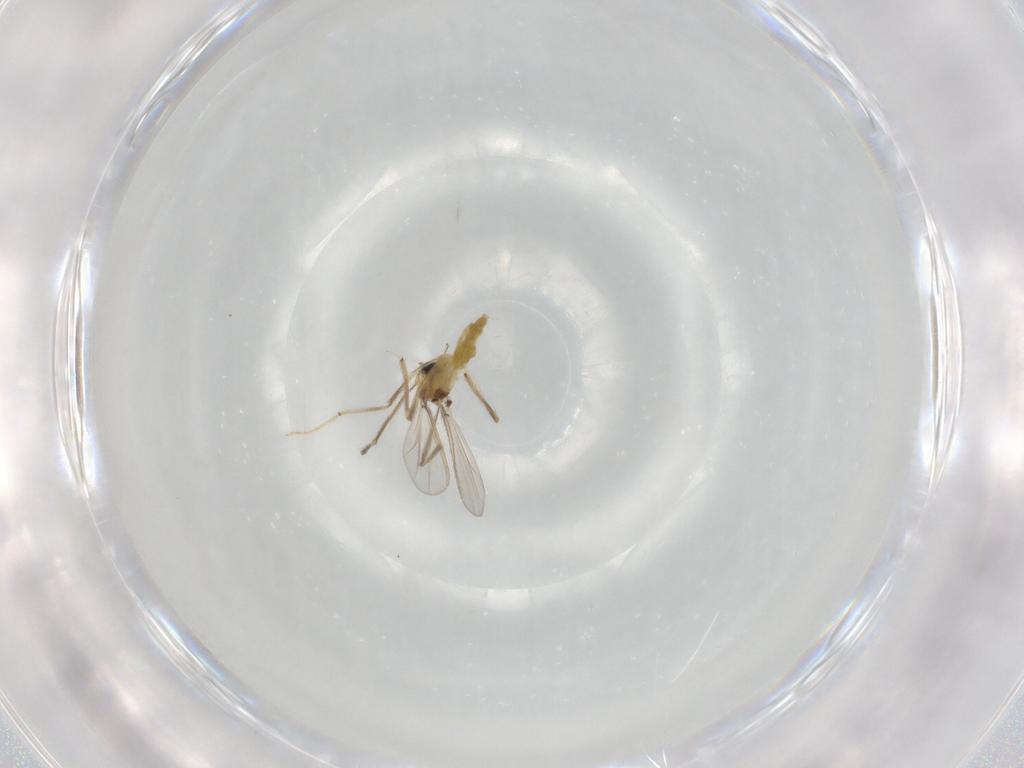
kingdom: Animalia
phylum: Arthropoda
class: Insecta
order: Diptera
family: Chironomidae
